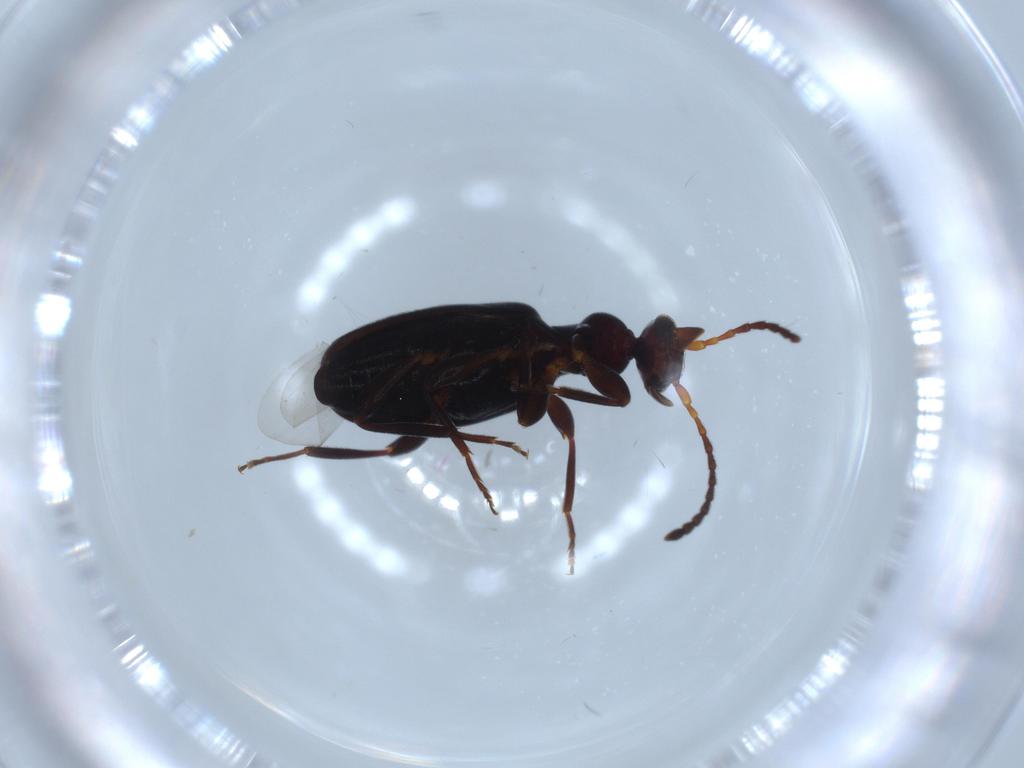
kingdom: Animalia
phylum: Arthropoda
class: Insecta
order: Coleoptera
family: Anthicidae
